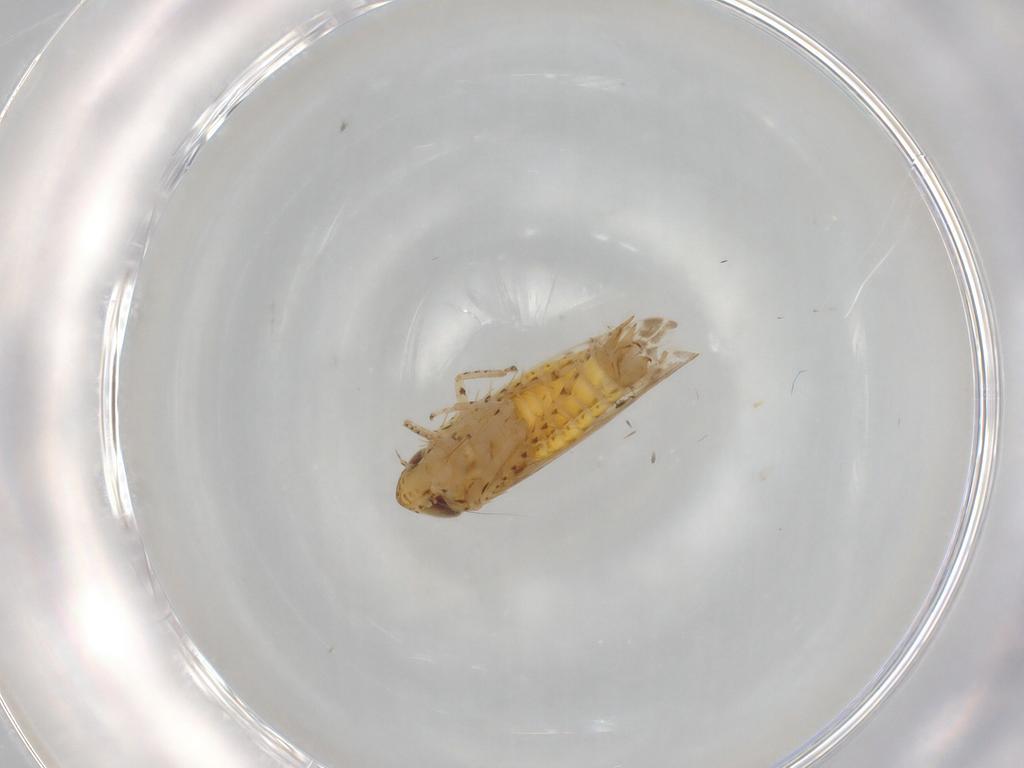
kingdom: Animalia
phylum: Arthropoda
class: Insecta
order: Hemiptera
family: Cicadellidae
